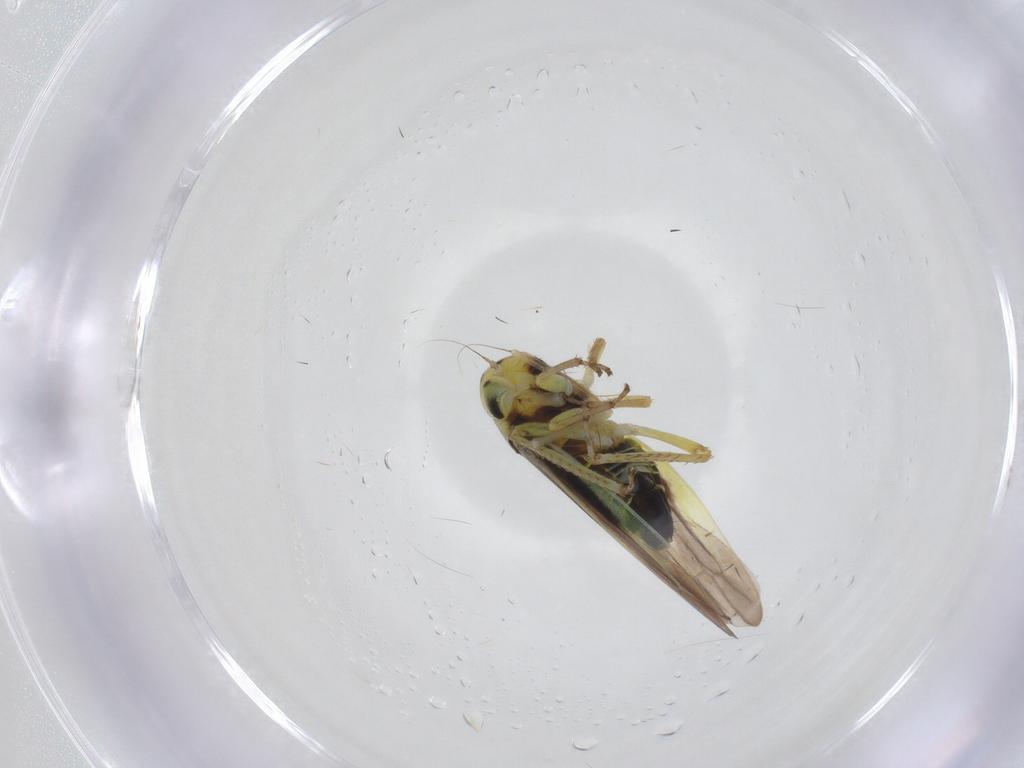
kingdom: Animalia
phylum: Arthropoda
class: Insecta
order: Hemiptera
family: Cicadellidae
